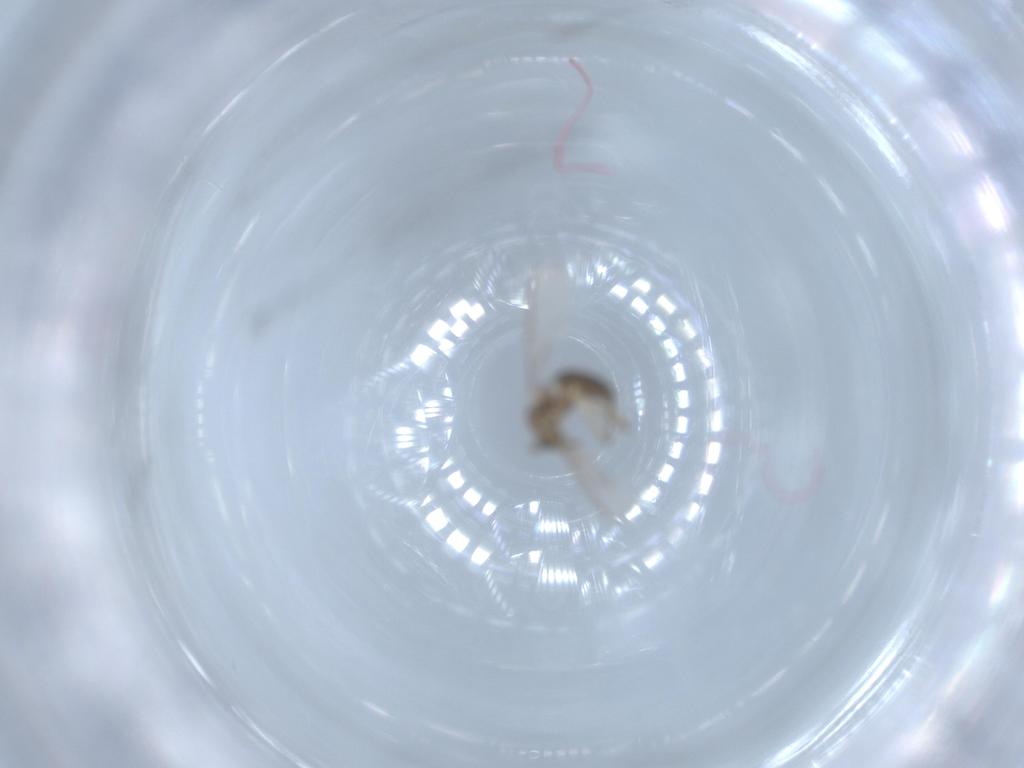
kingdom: Animalia
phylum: Arthropoda
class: Insecta
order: Diptera
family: Chironomidae
